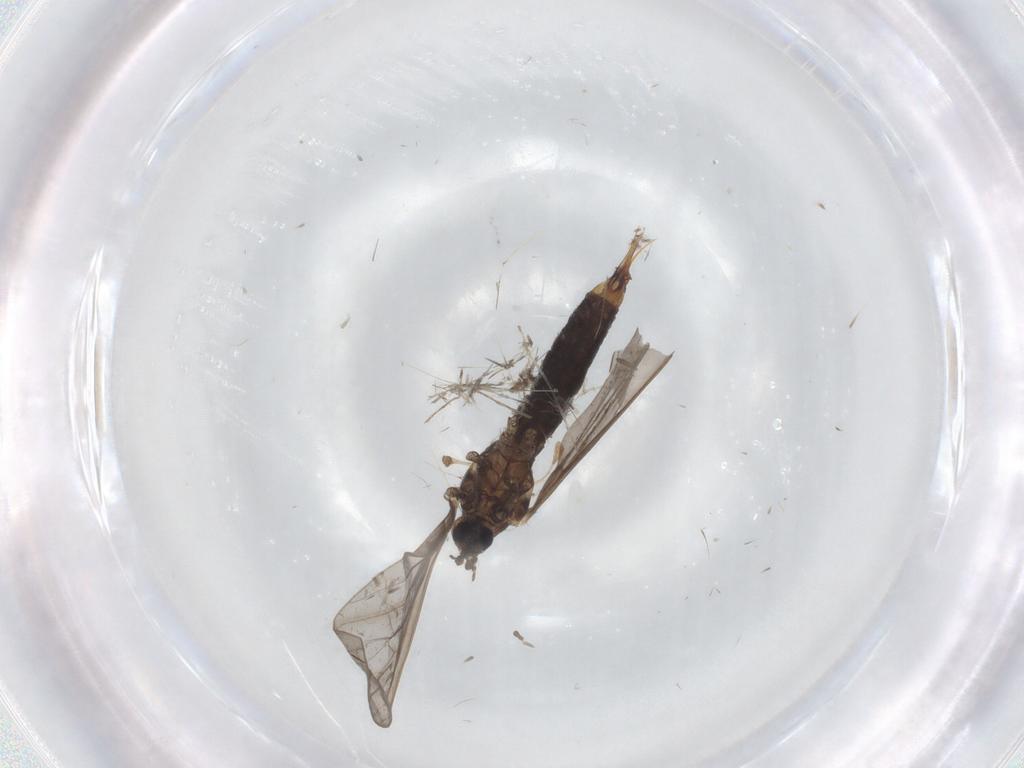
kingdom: Animalia
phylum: Arthropoda
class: Insecta
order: Diptera
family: Limoniidae
